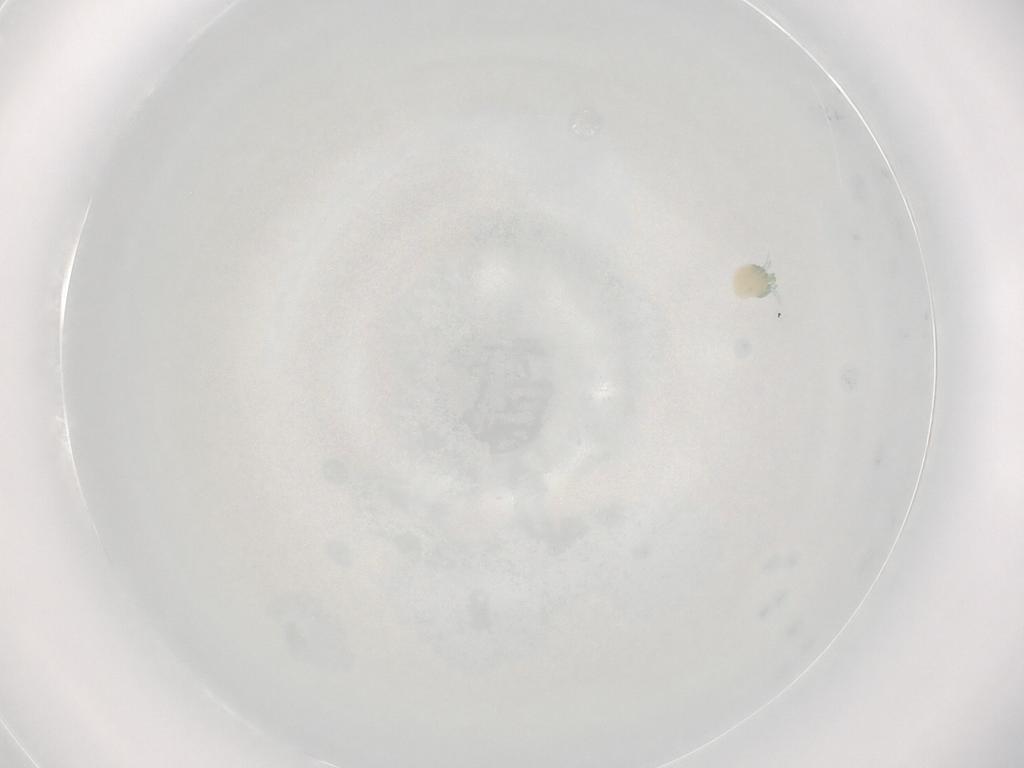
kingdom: Animalia
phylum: Arthropoda
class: Arachnida
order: Trombidiformes
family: Arrenuridae
